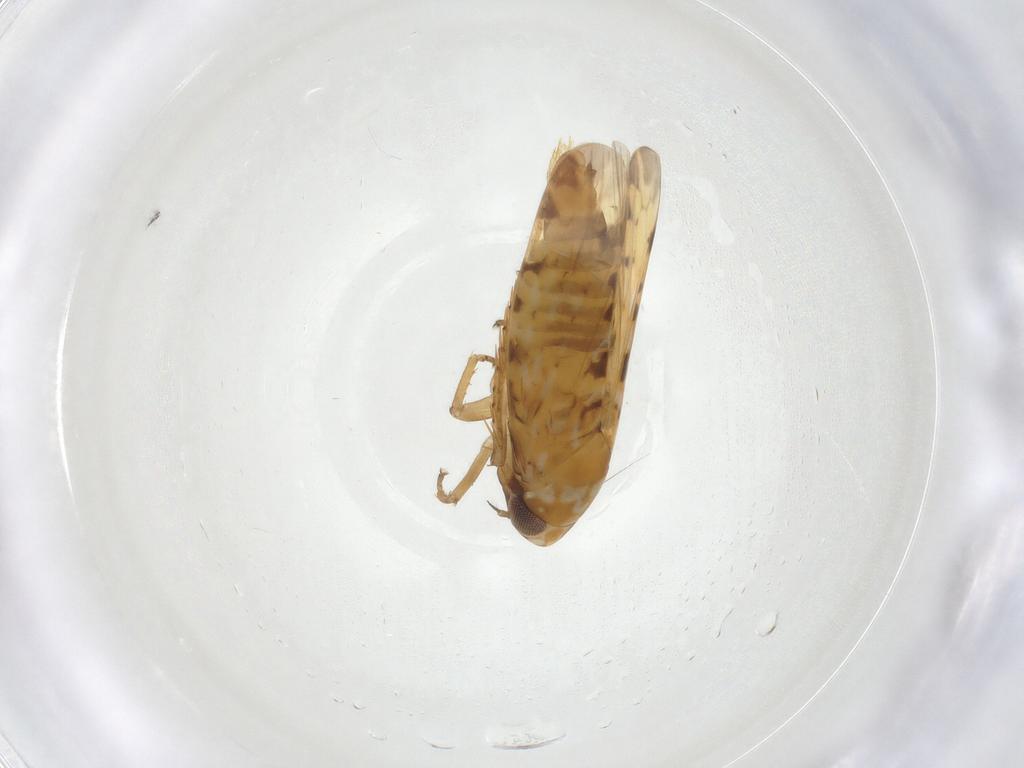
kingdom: Animalia
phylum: Arthropoda
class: Insecta
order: Hemiptera
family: Cicadellidae
